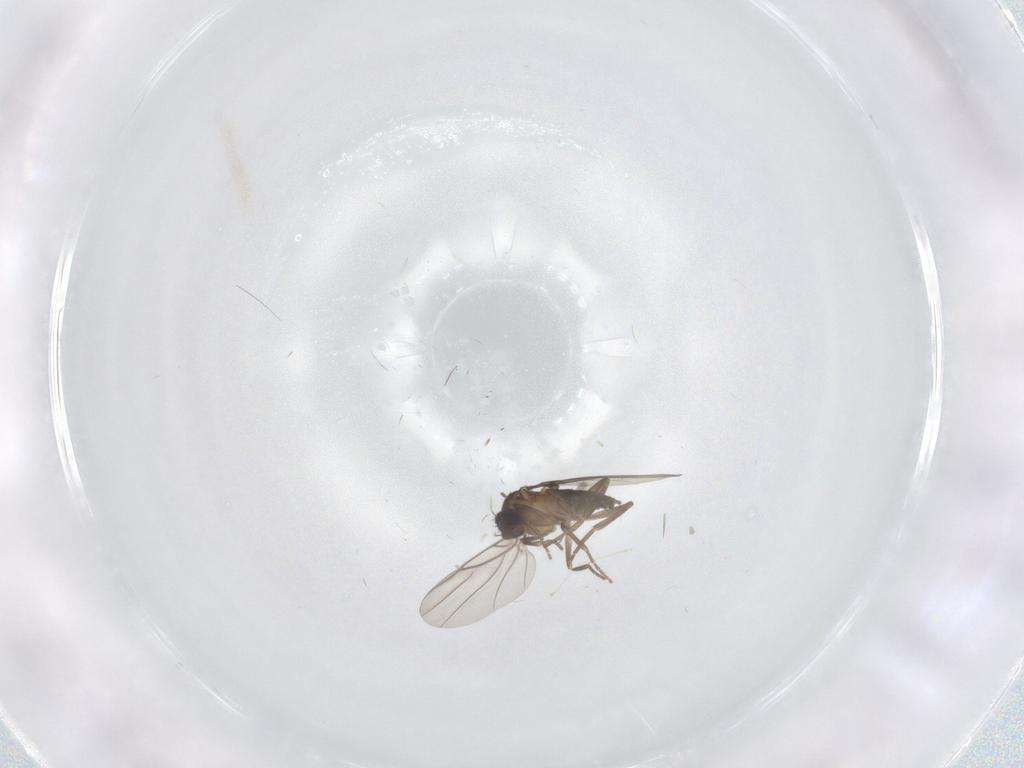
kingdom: Animalia
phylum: Arthropoda
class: Insecta
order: Diptera
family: Phoridae
